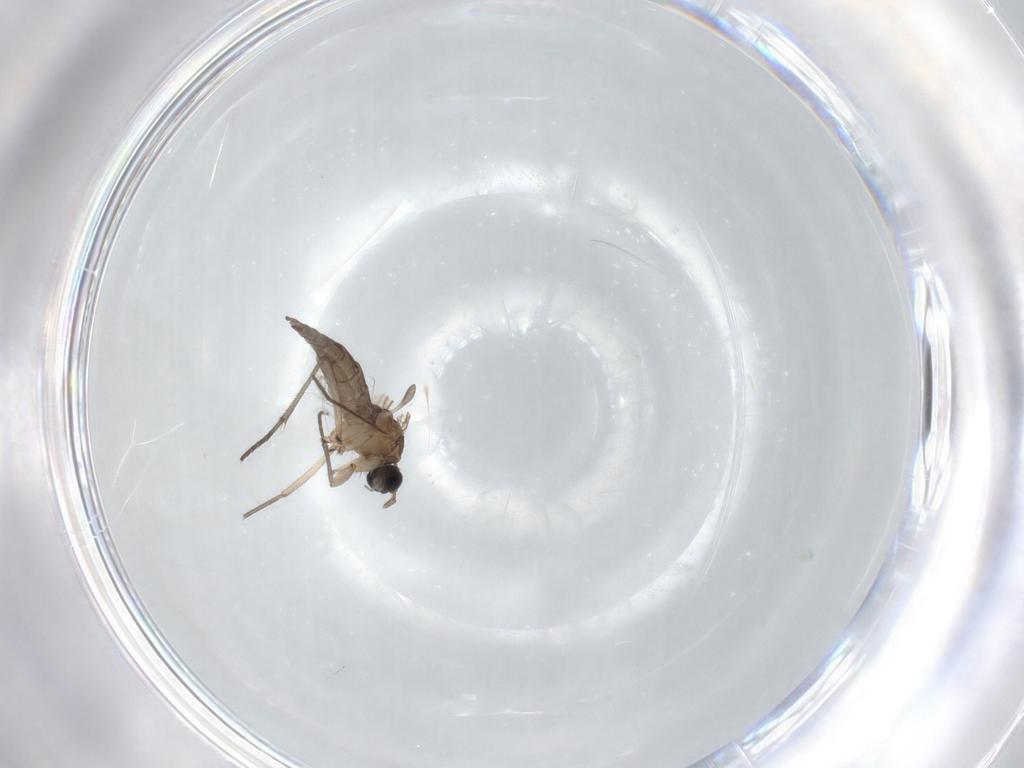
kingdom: Animalia
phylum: Arthropoda
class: Insecta
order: Diptera
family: Sciaridae
